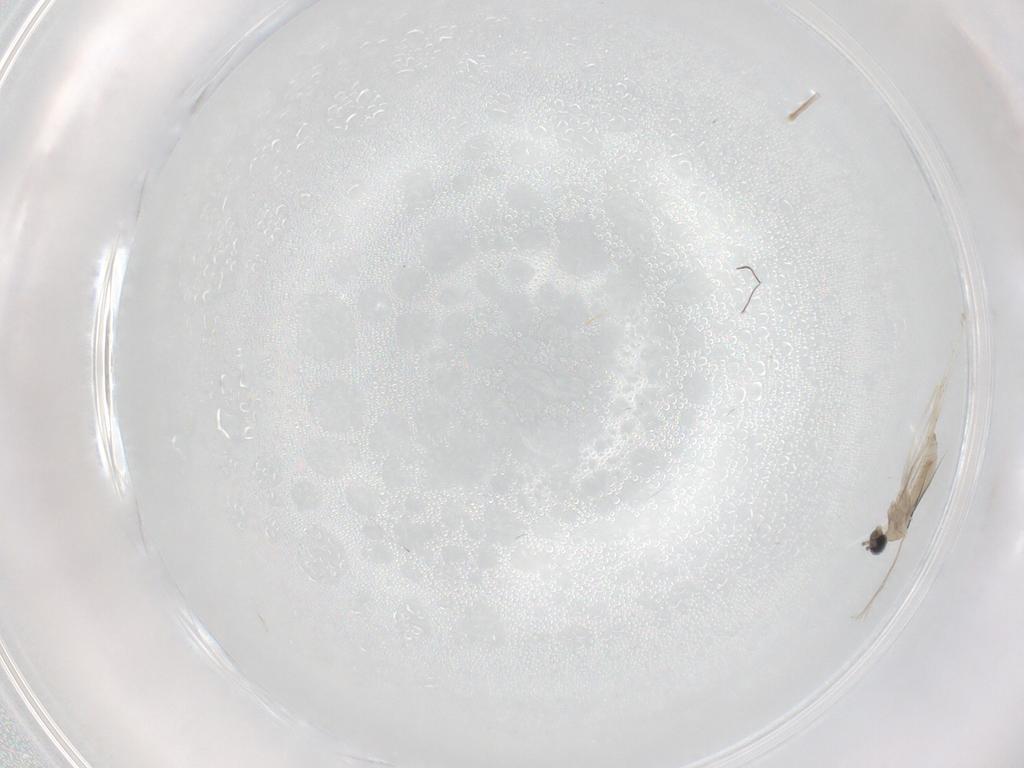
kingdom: Animalia
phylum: Arthropoda
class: Insecta
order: Diptera
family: Cecidomyiidae
